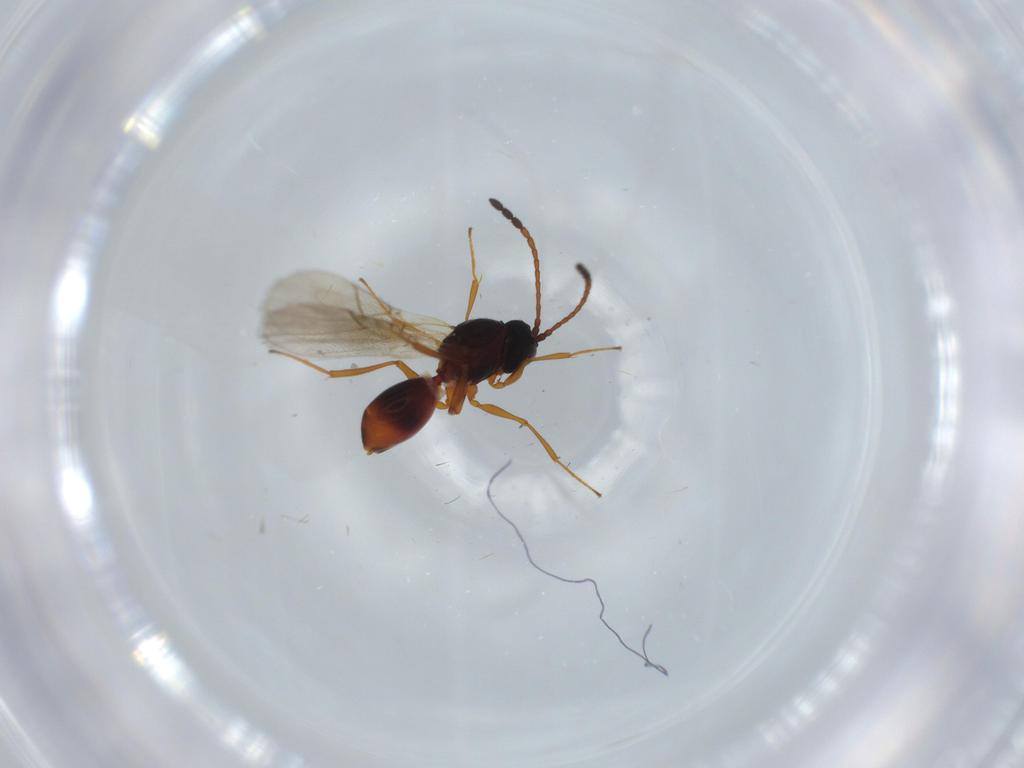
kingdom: Animalia
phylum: Arthropoda
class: Insecta
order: Hymenoptera
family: Figitidae
